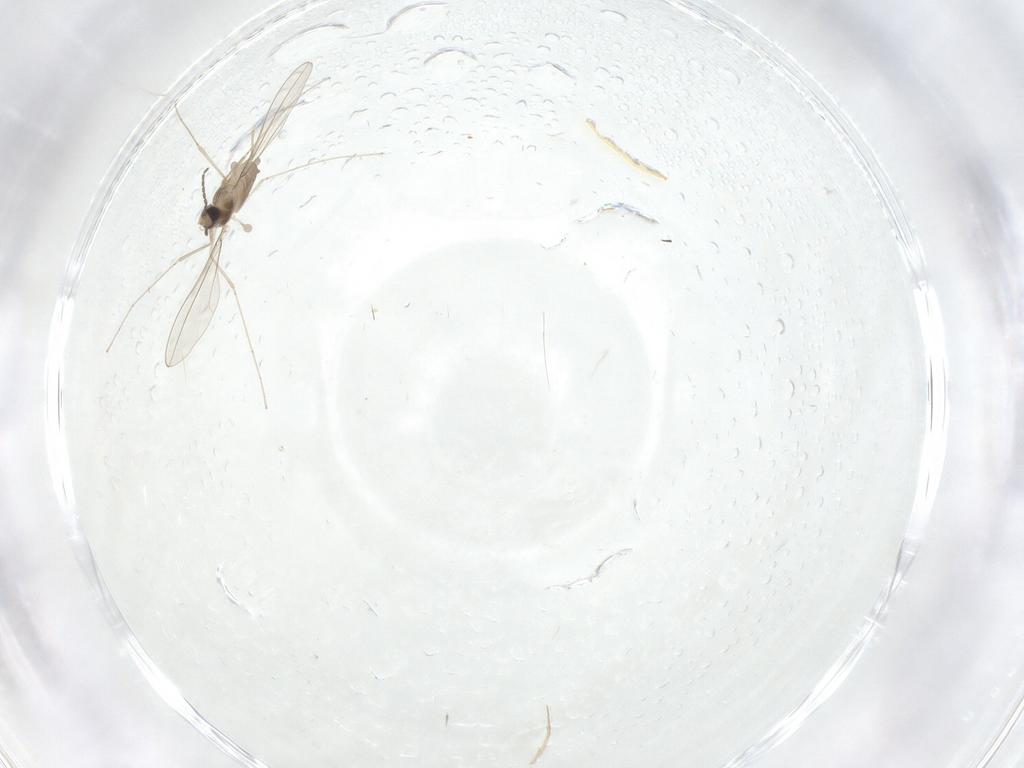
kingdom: Animalia
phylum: Arthropoda
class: Insecta
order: Diptera
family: Cecidomyiidae
